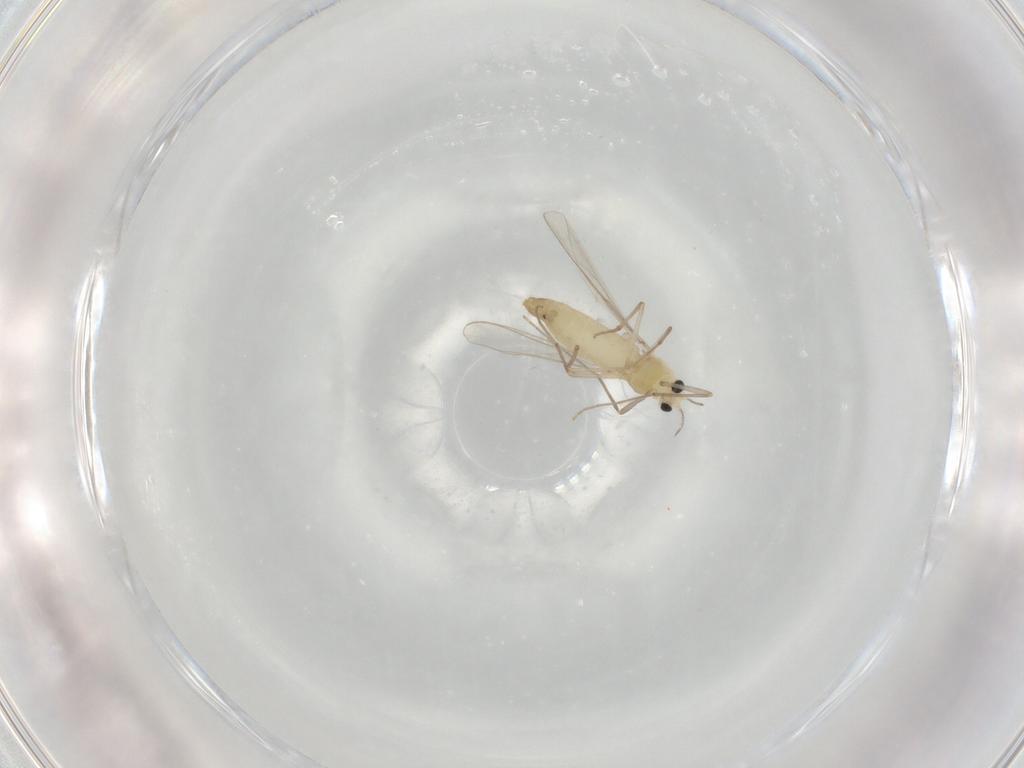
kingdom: Animalia
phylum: Arthropoda
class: Insecta
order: Diptera
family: Chironomidae
